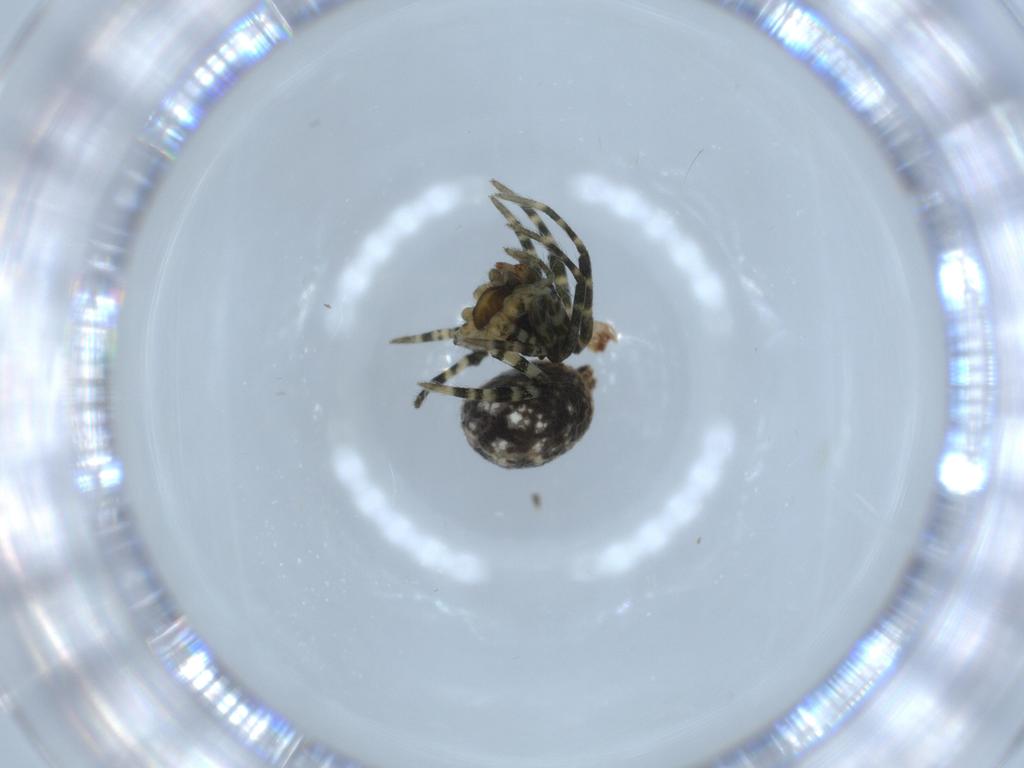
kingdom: Animalia
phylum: Arthropoda
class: Arachnida
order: Araneae
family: Nesticidae
